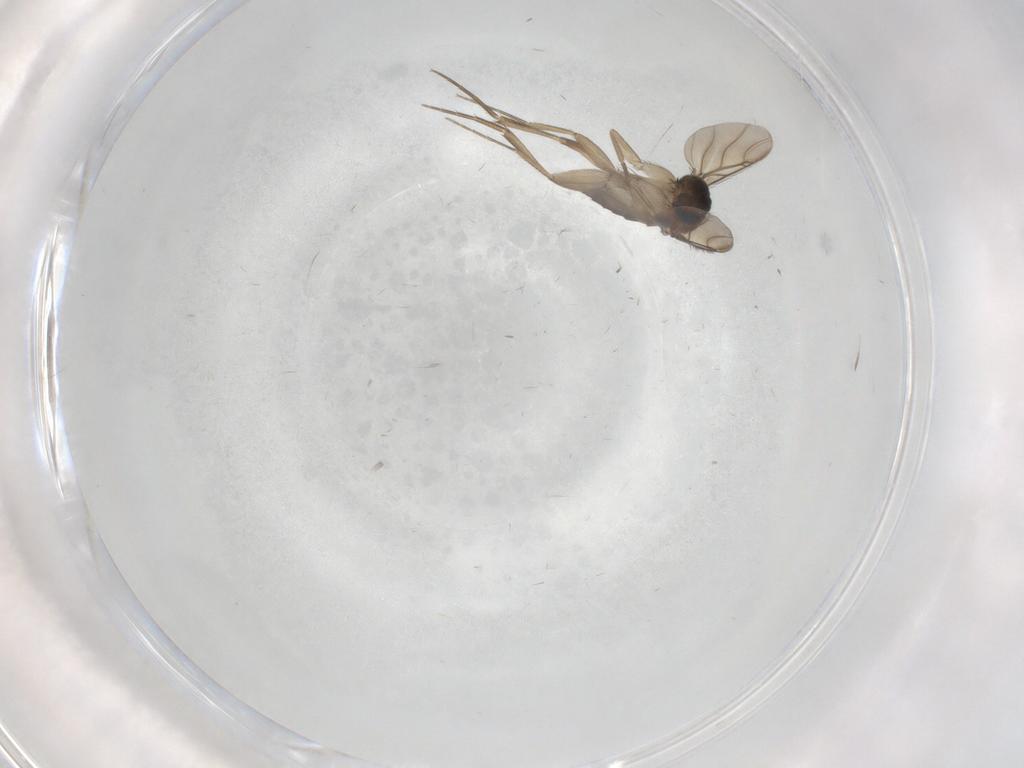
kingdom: Animalia
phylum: Arthropoda
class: Insecta
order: Diptera
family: Phoridae
